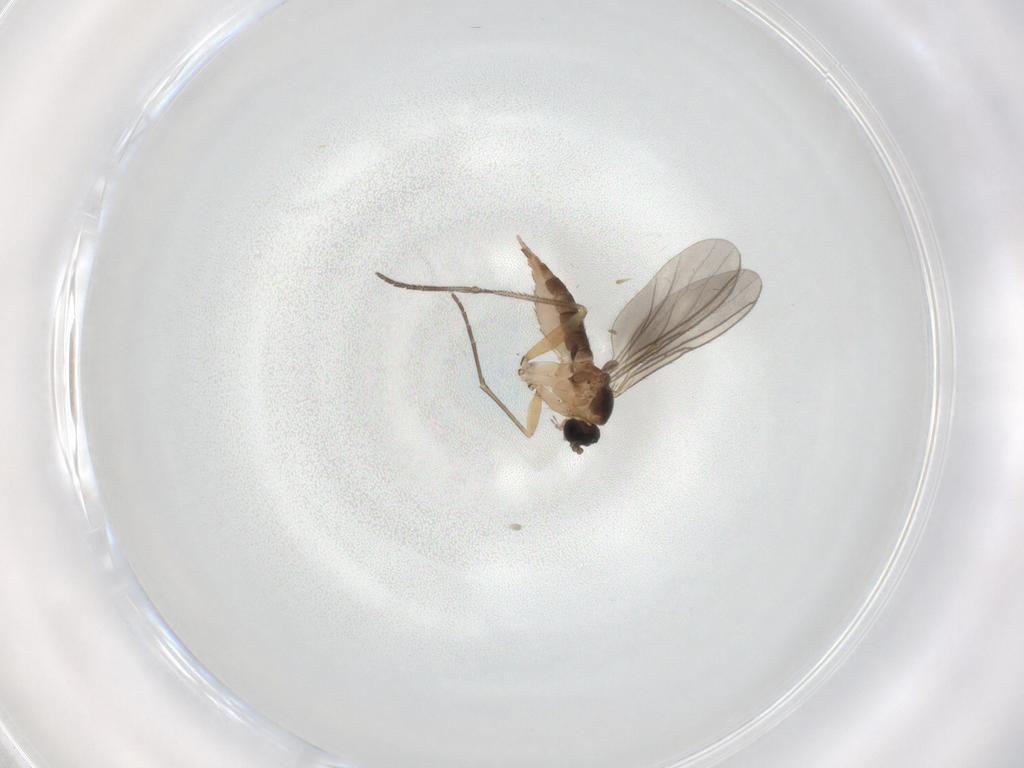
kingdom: Animalia
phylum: Arthropoda
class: Insecta
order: Diptera
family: Sciaridae
